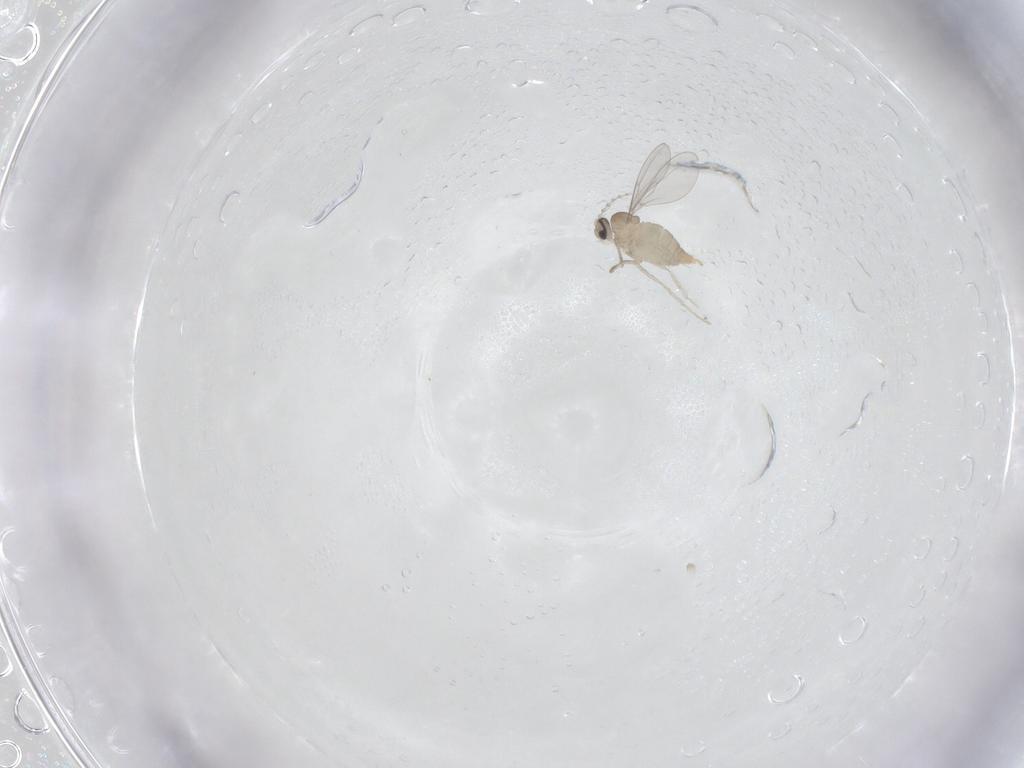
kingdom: Animalia
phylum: Arthropoda
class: Insecta
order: Diptera
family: Cecidomyiidae
